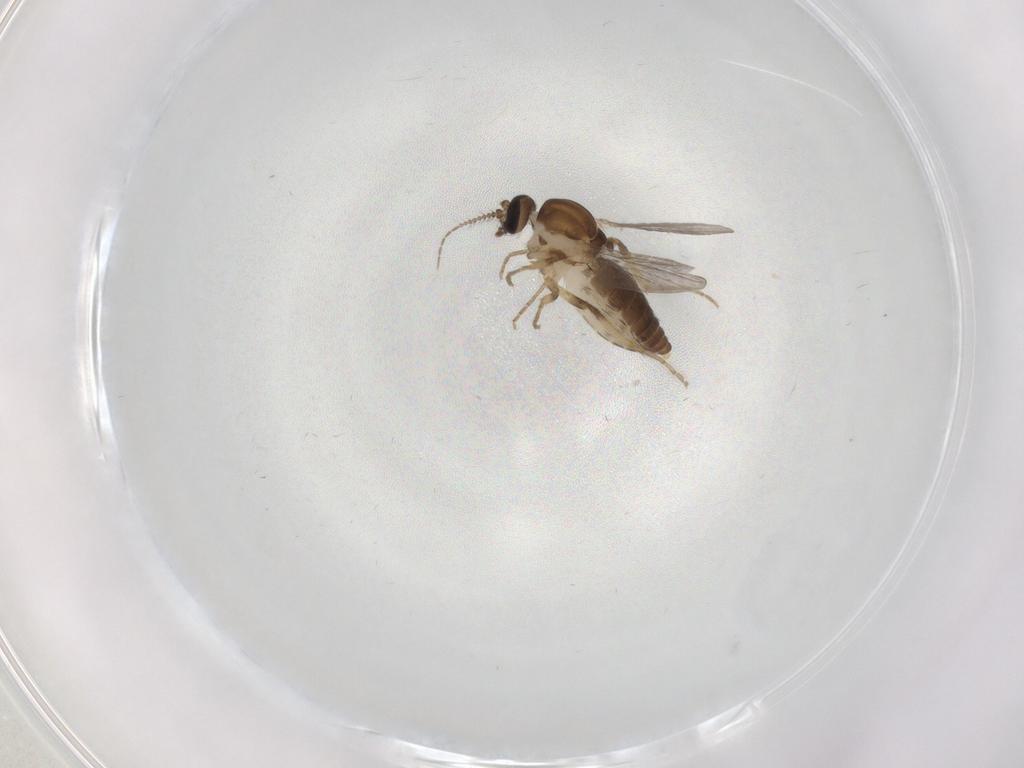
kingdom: Animalia
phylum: Arthropoda
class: Insecta
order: Diptera
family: Ceratopogonidae
